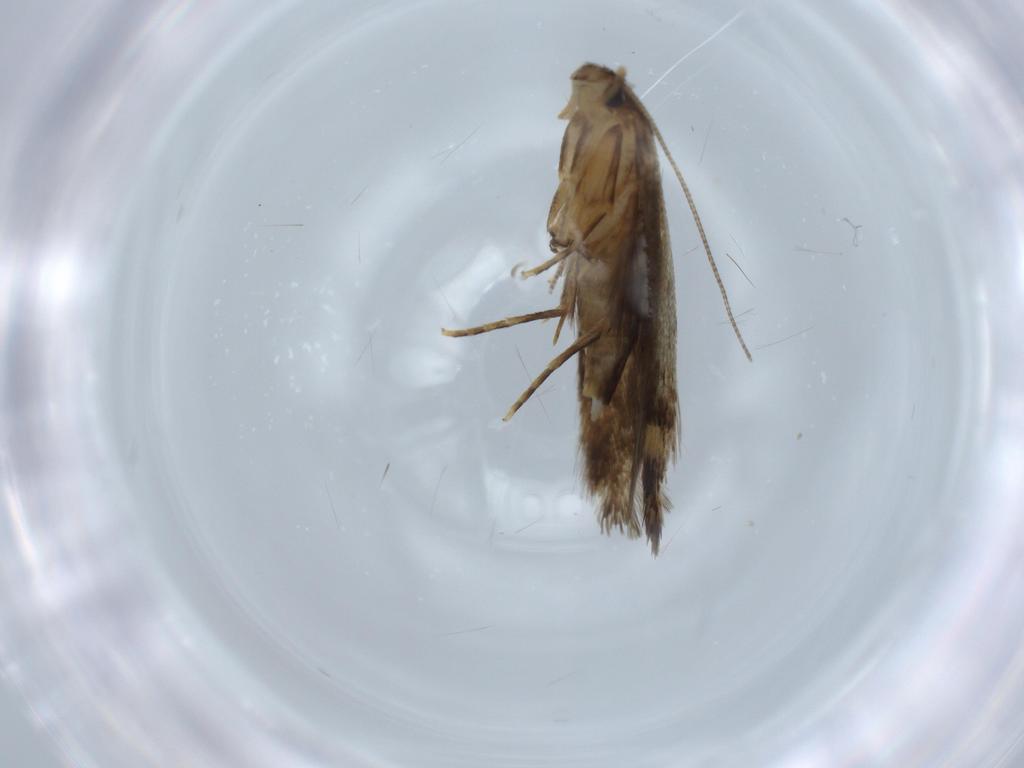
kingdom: Animalia
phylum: Arthropoda
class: Insecta
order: Lepidoptera
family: Tineidae
